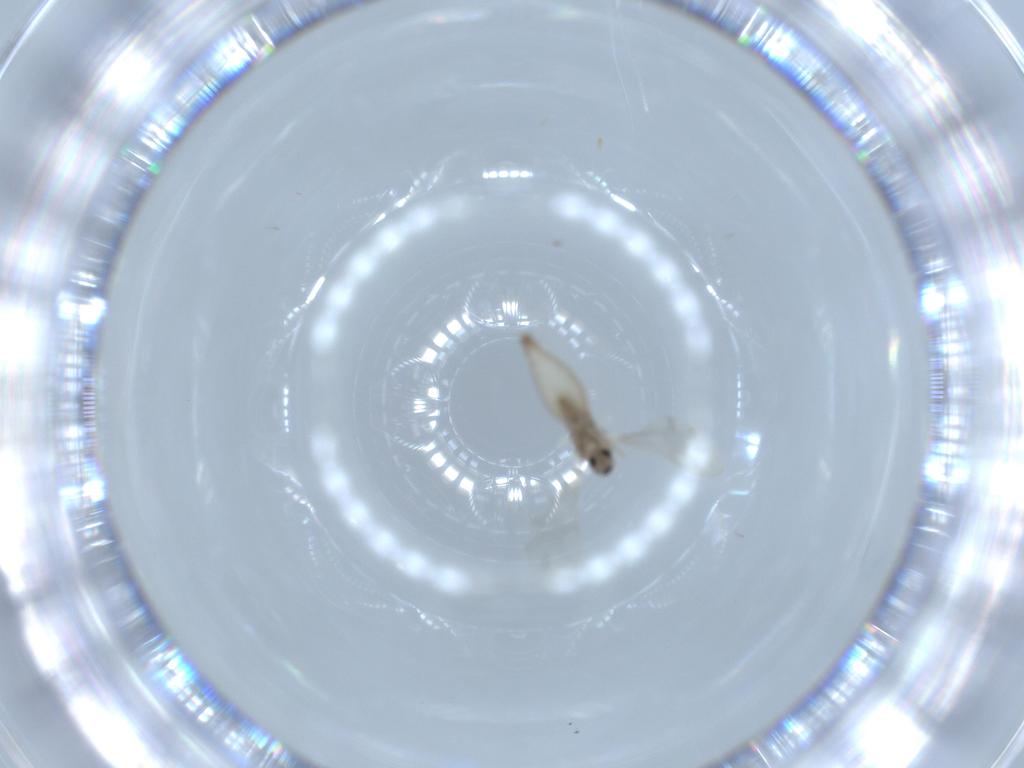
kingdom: Animalia
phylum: Arthropoda
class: Insecta
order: Diptera
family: Cecidomyiidae
